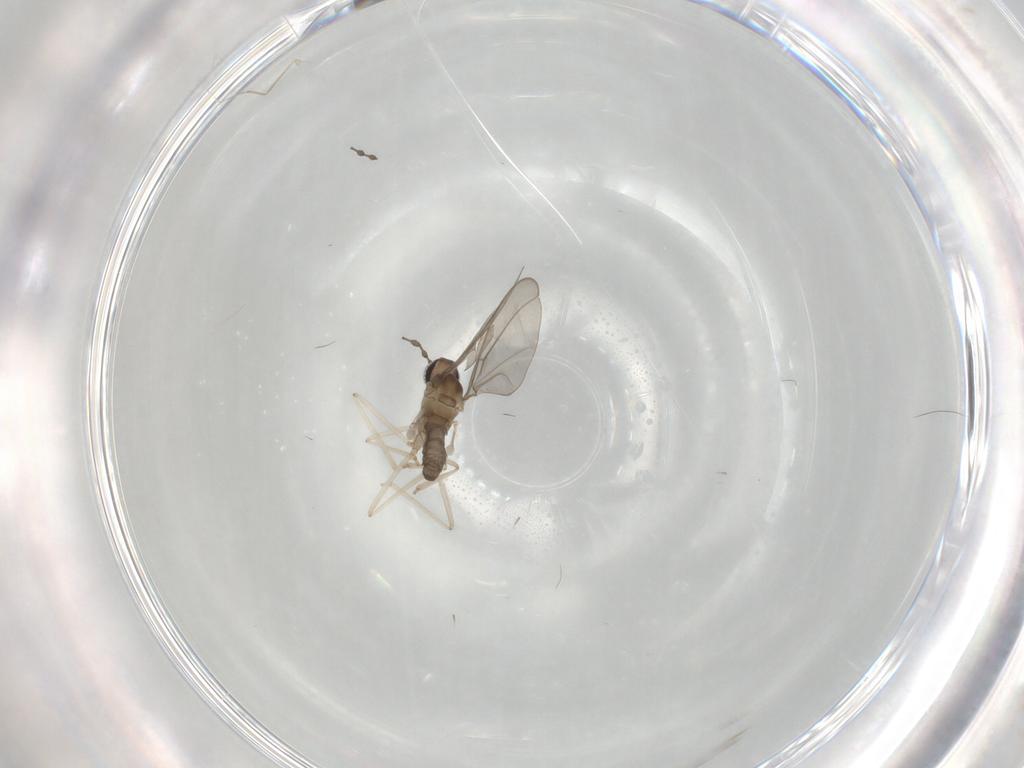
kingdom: Animalia
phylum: Arthropoda
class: Insecta
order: Diptera
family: Cecidomyiidae
